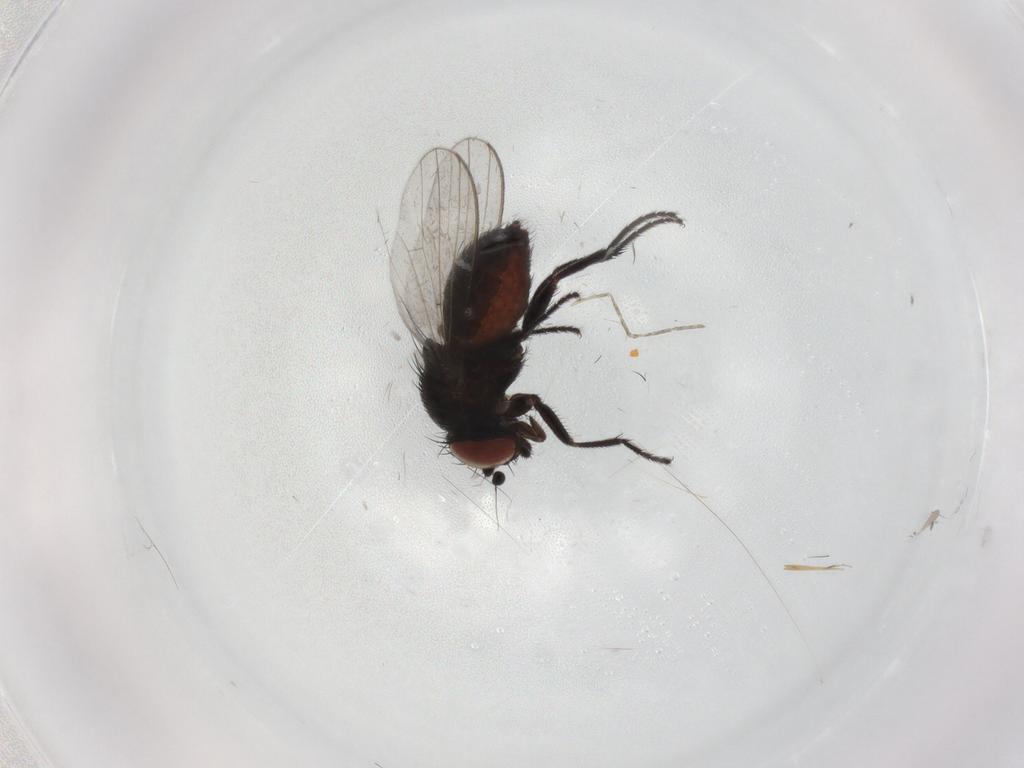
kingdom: Animalia
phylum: Arthropoda
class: Insecta
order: Diptera
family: Milichiidae
